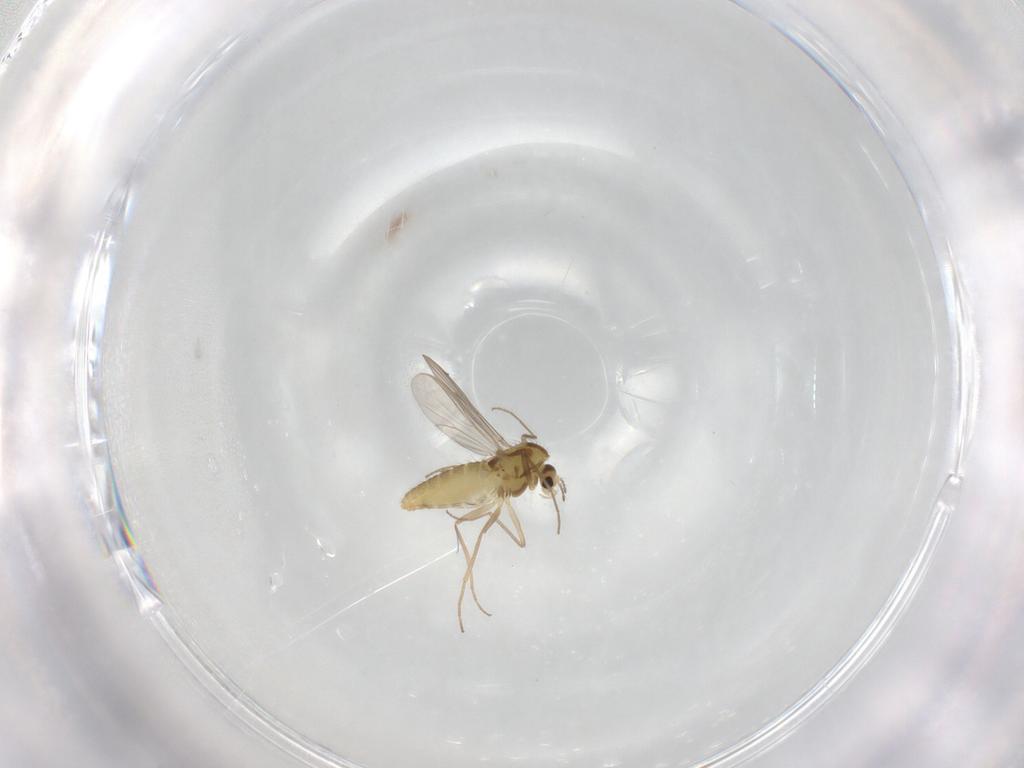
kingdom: Animalia
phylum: Arthropoda
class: Insecta
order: Diptera
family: Chironomidae
